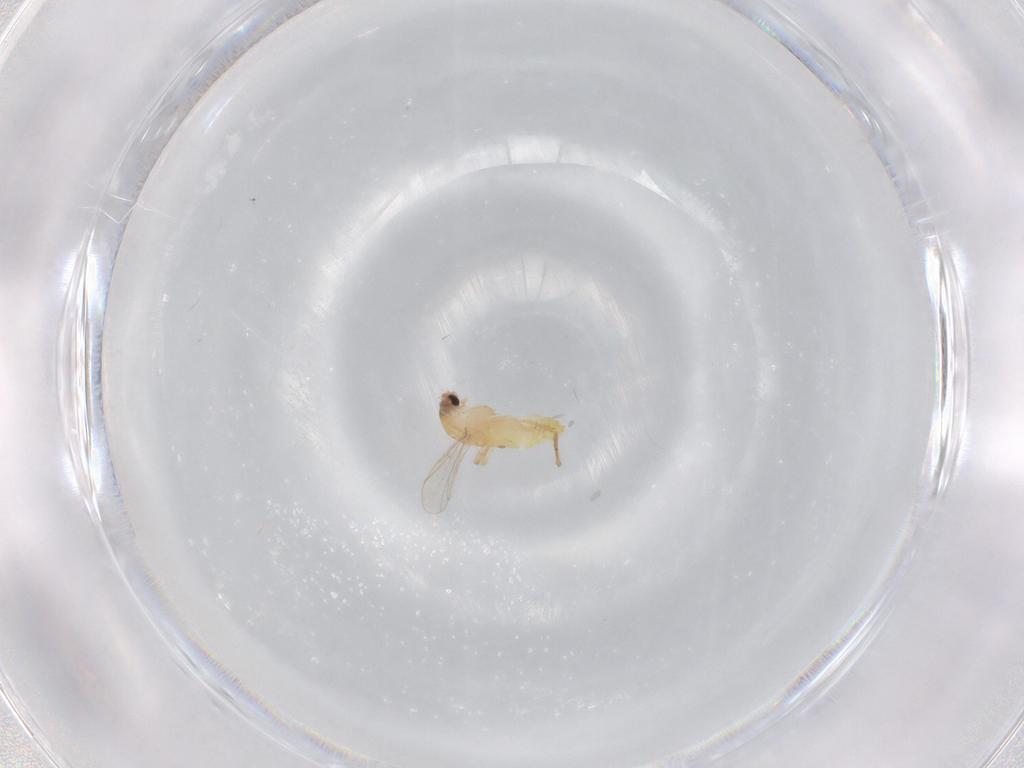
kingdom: Animalia
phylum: Arthropoda
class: Insecta
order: Diptera
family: Chironomidae
